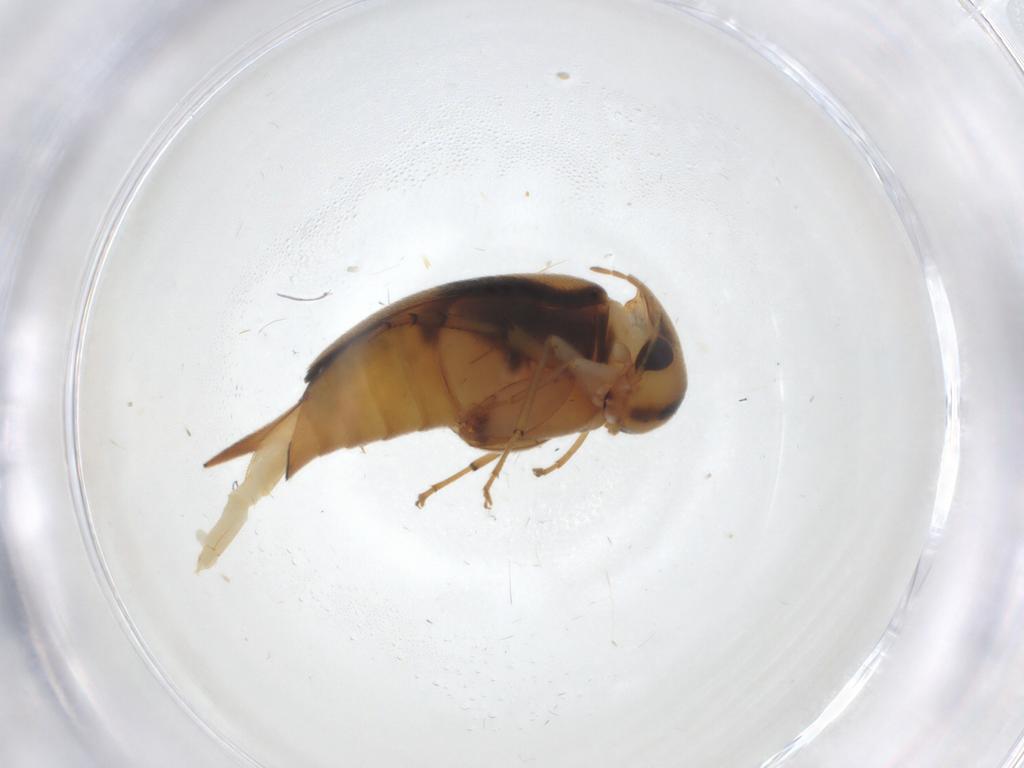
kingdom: Animalia
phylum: Arthropoda
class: Insecta
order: Coleoptera
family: Mordellidae
